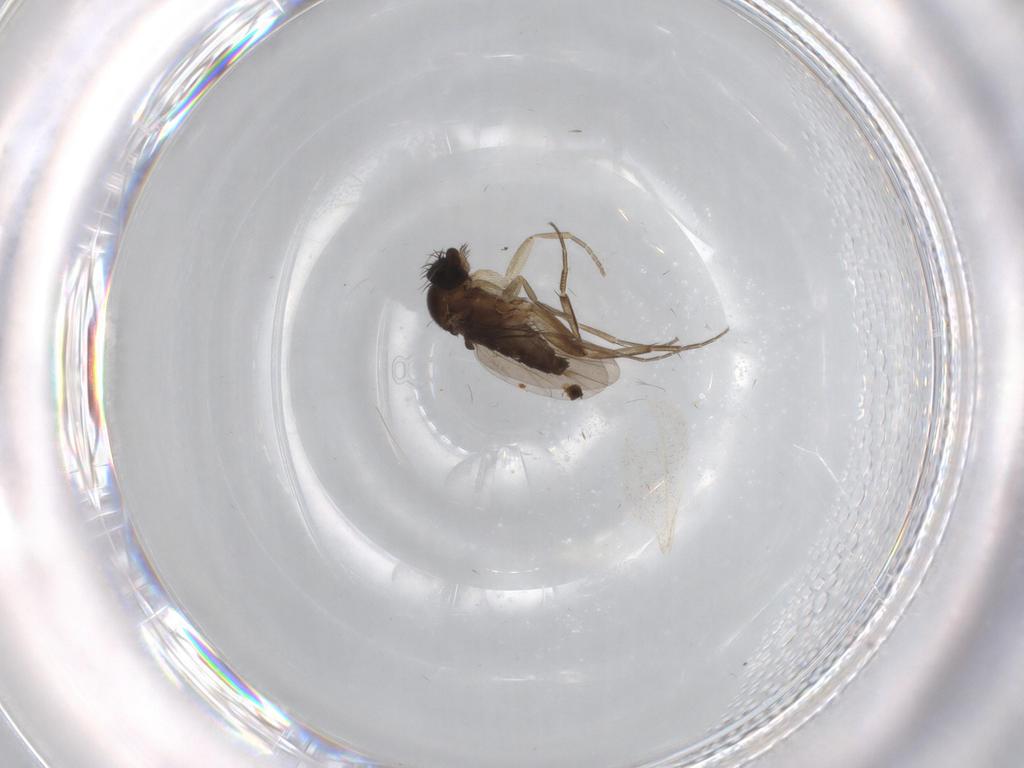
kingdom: Animalia
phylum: Arthropoda
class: Insecta
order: Diptera
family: Phoridae
